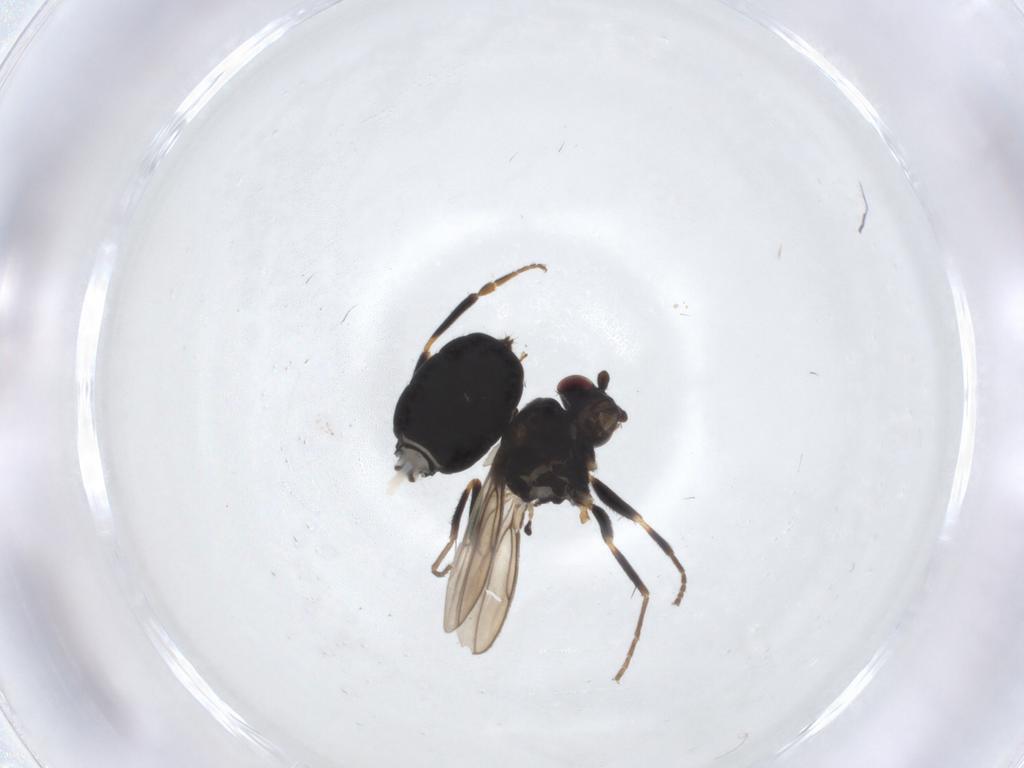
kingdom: Animalia
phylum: Arthropoda
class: Insecta
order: Diptera
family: Sphaeroceridae
